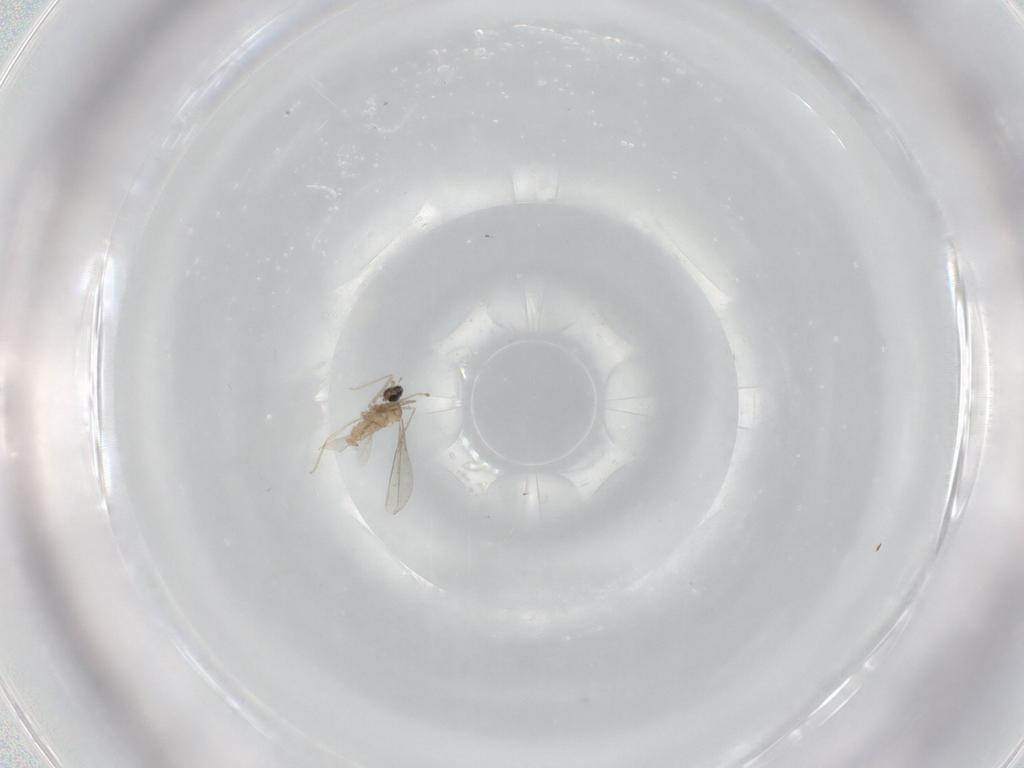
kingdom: Animalia
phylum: Arthropoda
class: Insecta
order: Diptera
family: Cecidomyiidae
